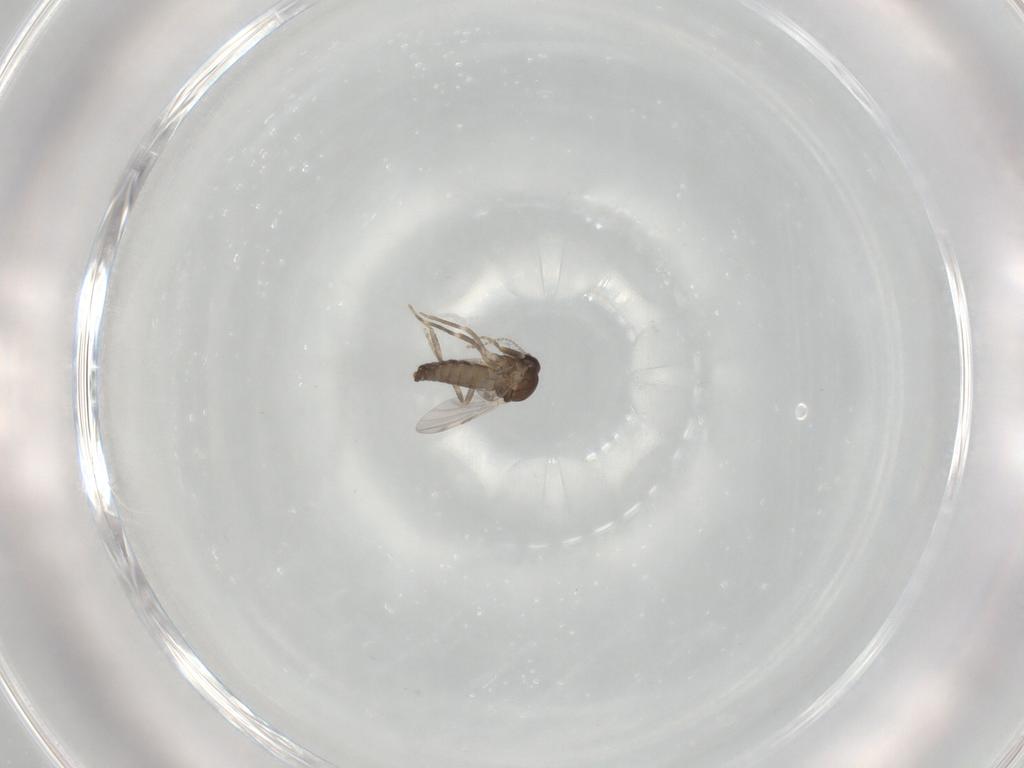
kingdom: Animalia
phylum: Arthropoda
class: Insecta
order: Diptera
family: Ceratopogonidae
